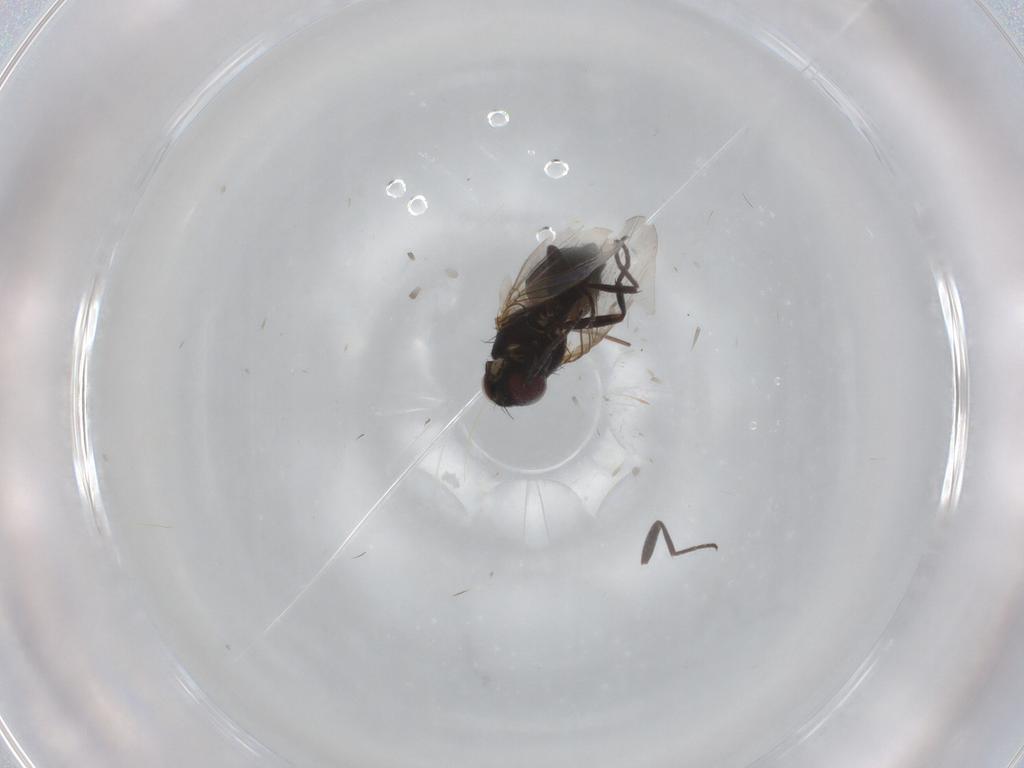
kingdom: Animalia
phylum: Arthropoda
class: Insecta
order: Diptera
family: Agromyzidae
